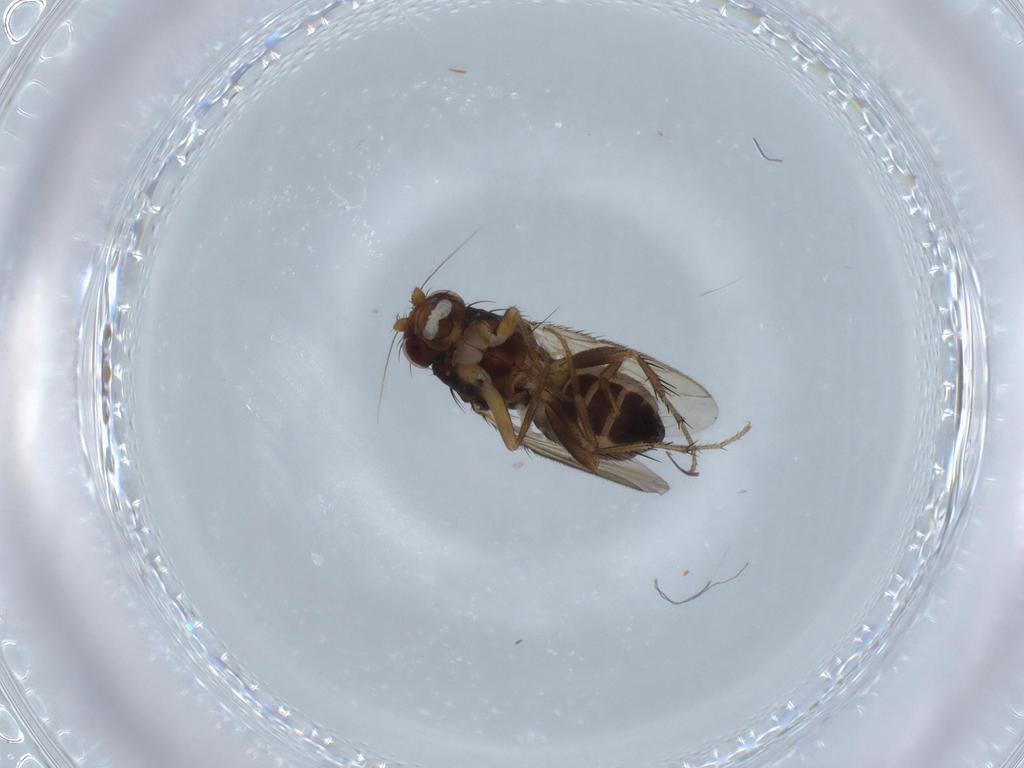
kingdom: Animalia
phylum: Arthropoda
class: Insecta
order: Diptera
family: Sphaeroceridae
